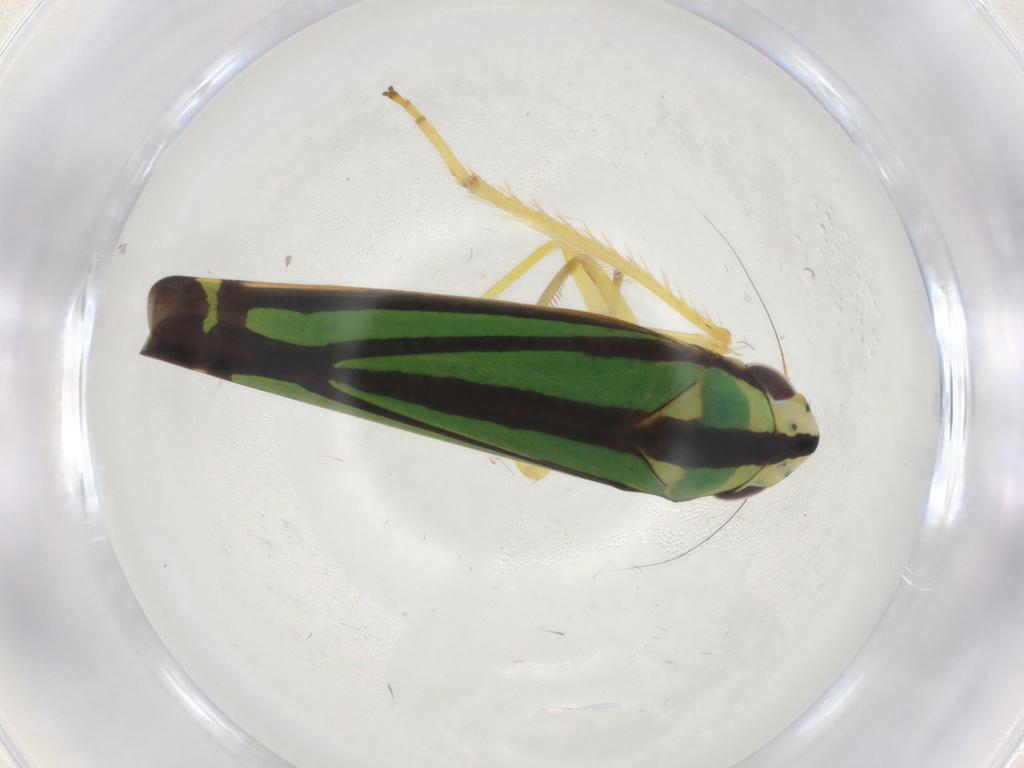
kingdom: Animalia
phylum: Arthropoda
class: Insecta
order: Hemiptera
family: Cicadellidae
